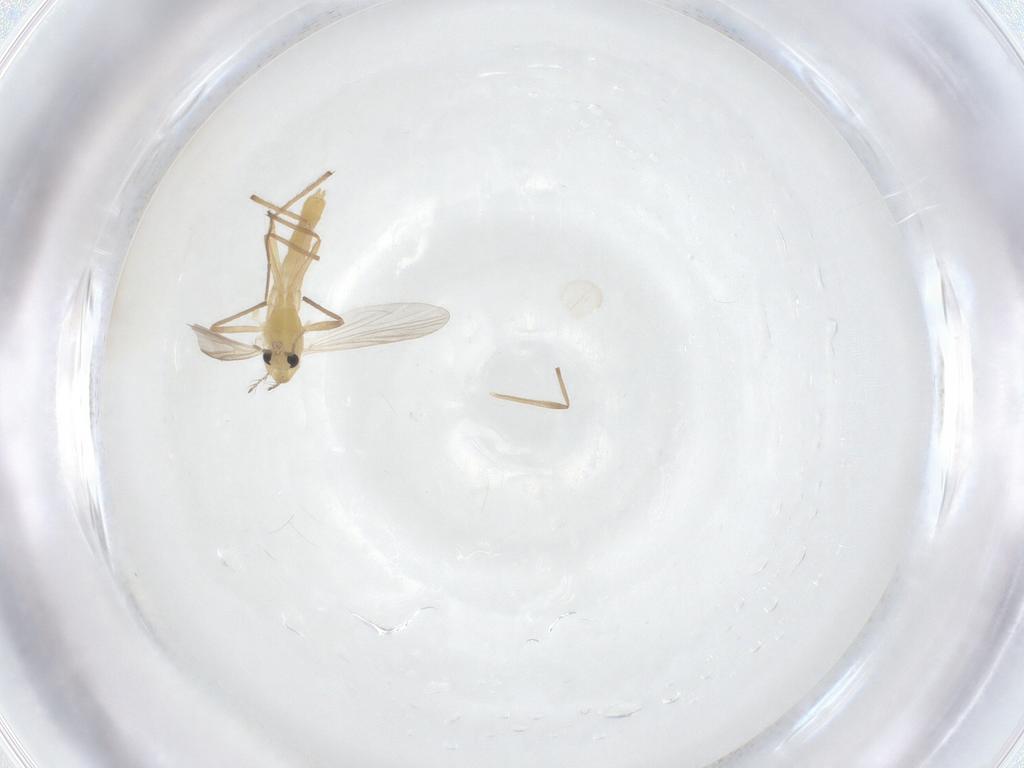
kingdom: Animalia
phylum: Arthropoda
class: Insecta
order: Diptera
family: Chironomidae
